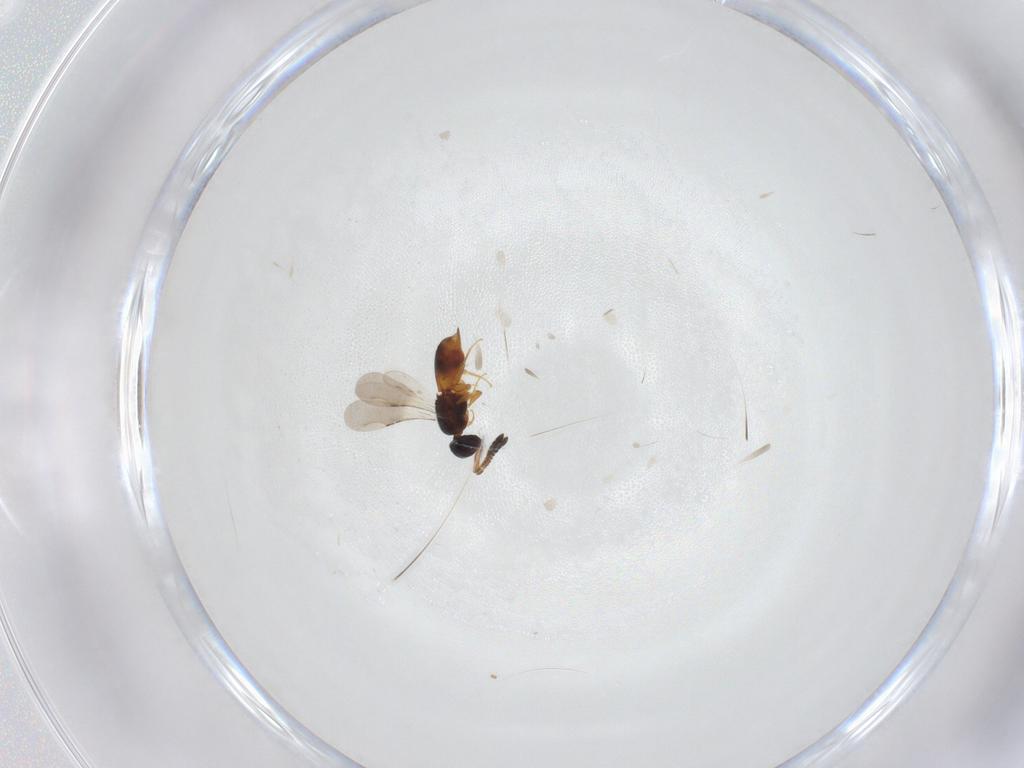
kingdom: Animalia
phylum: Arthropoda
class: Insecta
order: Hymenoptera
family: Ceraphronidae
